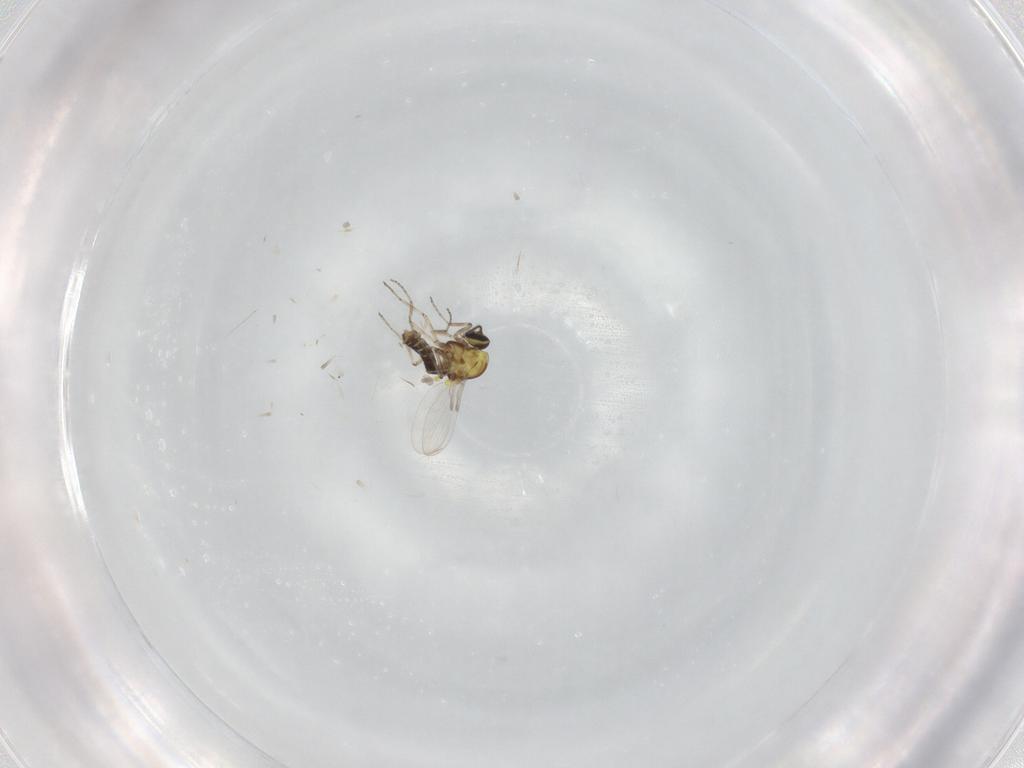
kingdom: Animalia
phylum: Arthropoda
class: Insecta
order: Diptera
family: Ceratopogonidae
